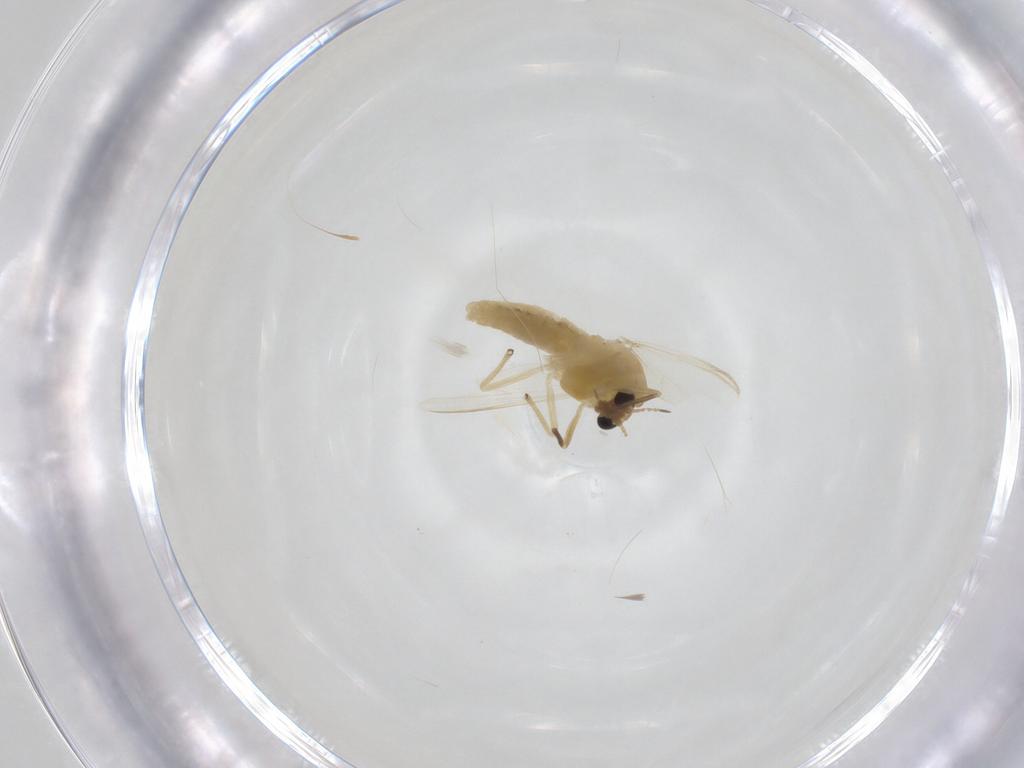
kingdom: Animalia
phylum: Arthropoda
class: Insecta
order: Diptera
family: Chironomidae
